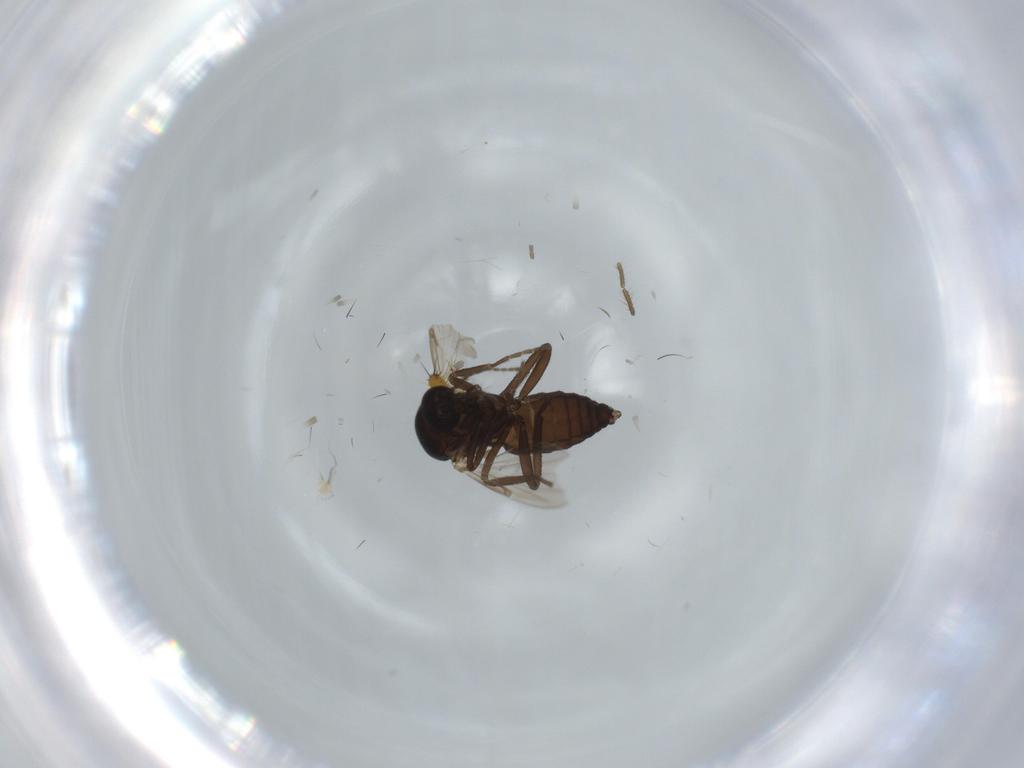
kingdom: Animalia
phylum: Arthropoda
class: Insecta
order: Diptera
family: Ceratopogonidae
